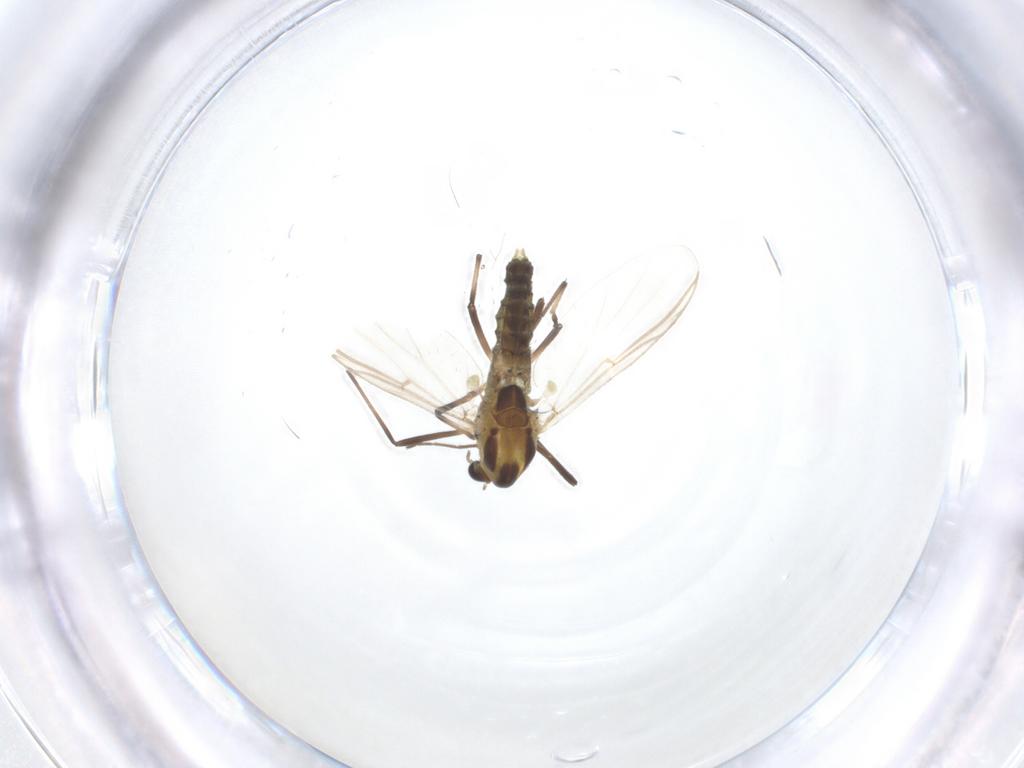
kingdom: Animalia
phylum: Arthropoda
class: Insecta
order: Diptera
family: Chironomidae
